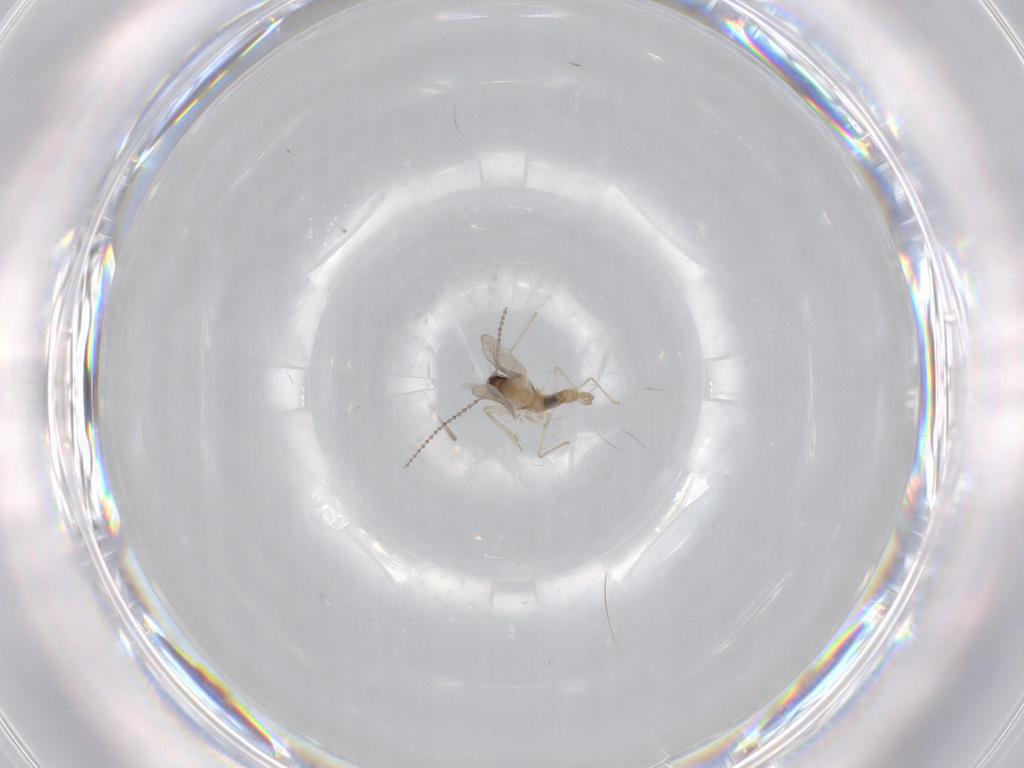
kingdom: Animalia
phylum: Arthropoda
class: Insecta
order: Diptera
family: Cecidomyiidae
